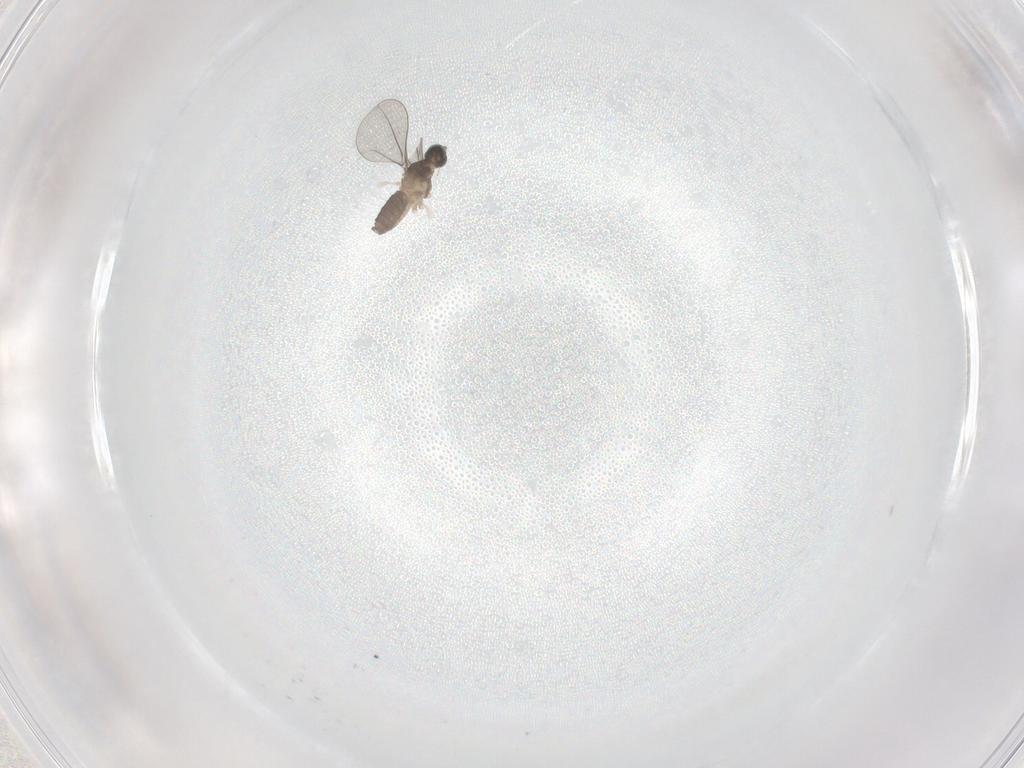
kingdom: Animalia
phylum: Arthropoda
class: Insecta
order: Diptera
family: Cecidomyiidae
